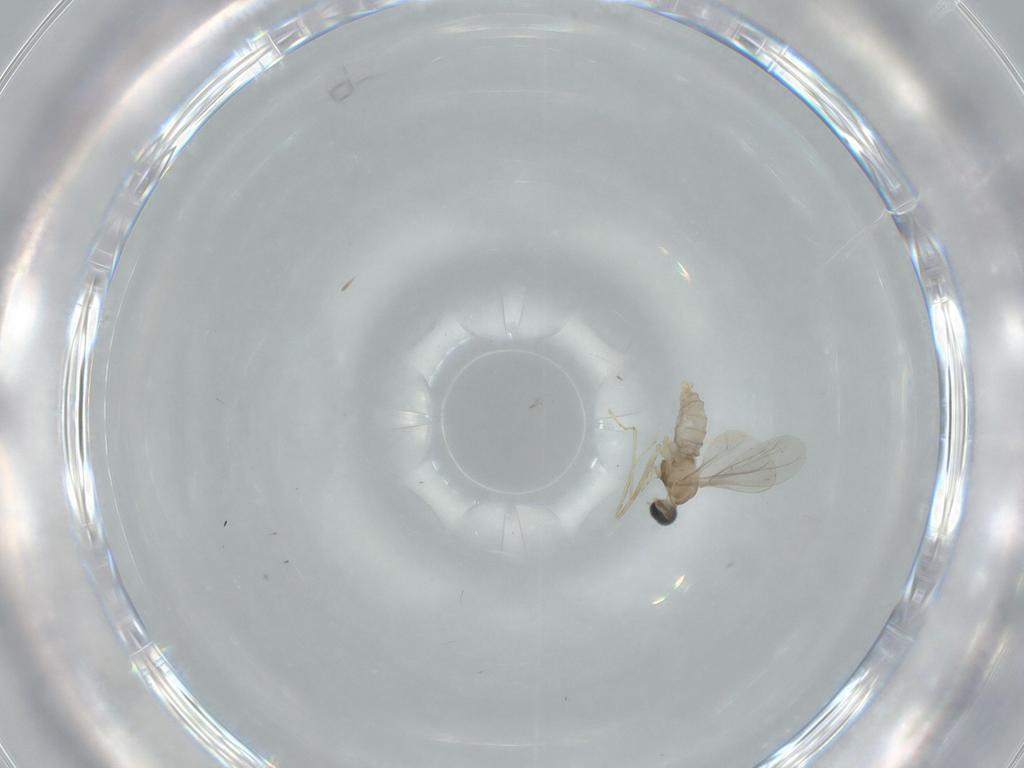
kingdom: Animalia
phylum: Arthropoda
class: Insecta
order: Diptera
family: Cecidomyiidae
